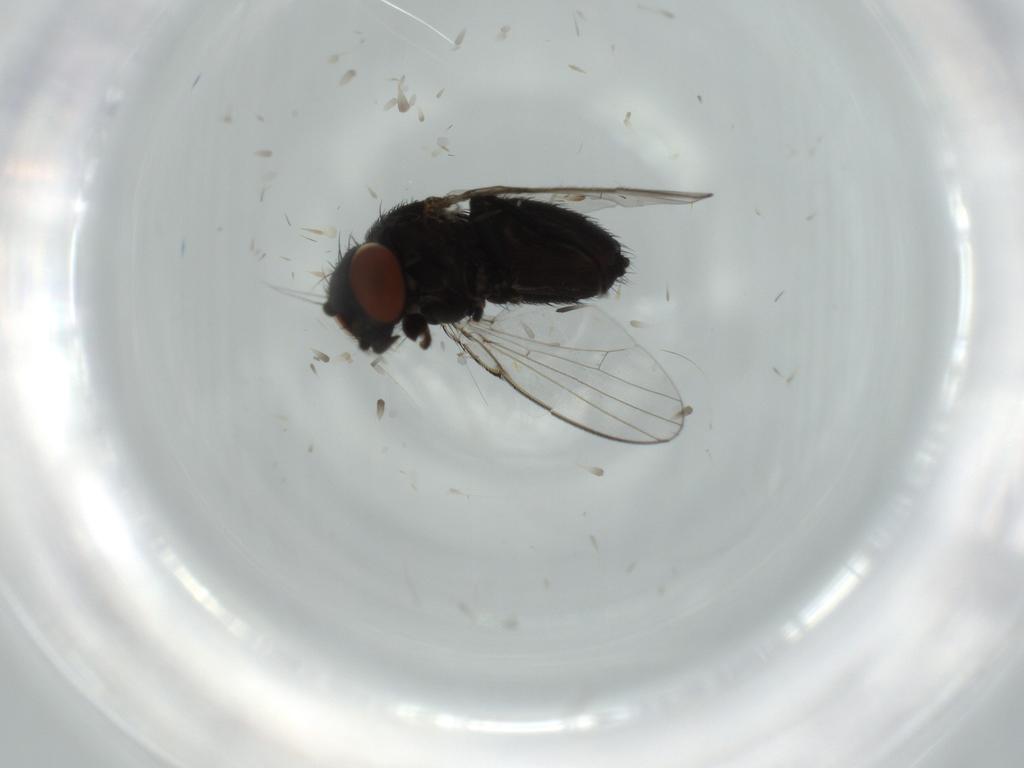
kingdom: Animalia
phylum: Arthropoda
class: Insecta
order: Diptera
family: Milichiidae
